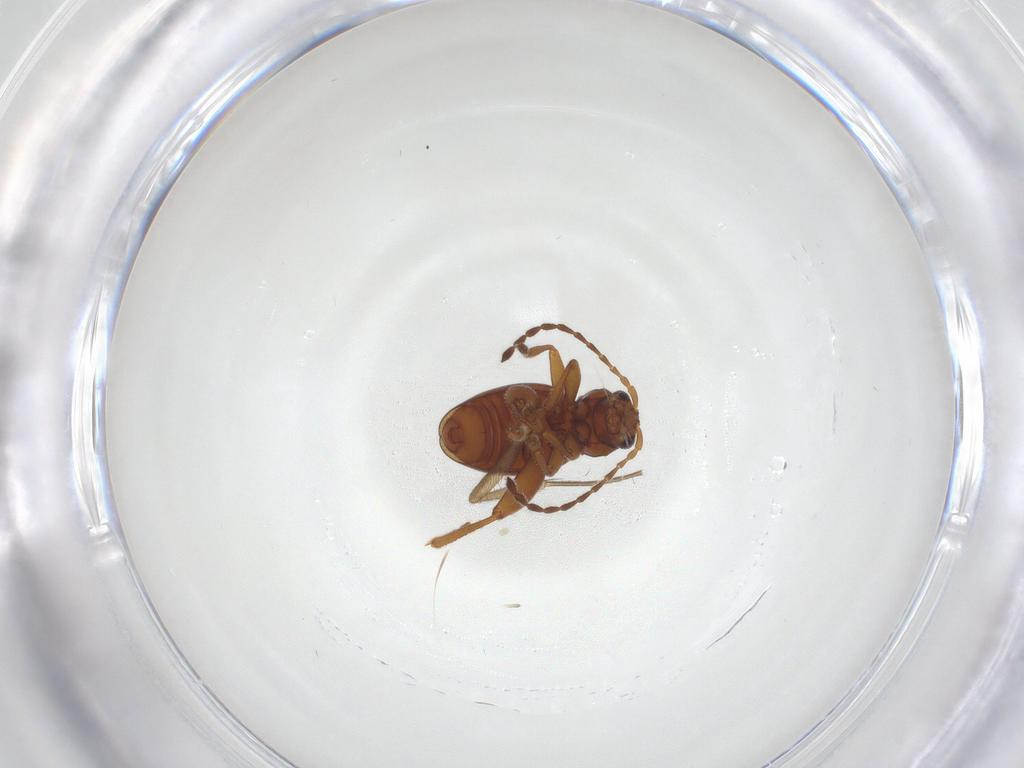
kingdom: Animalia
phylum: Arthropoda
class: Insecta
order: Coleoptera
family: Chrysomelidae
